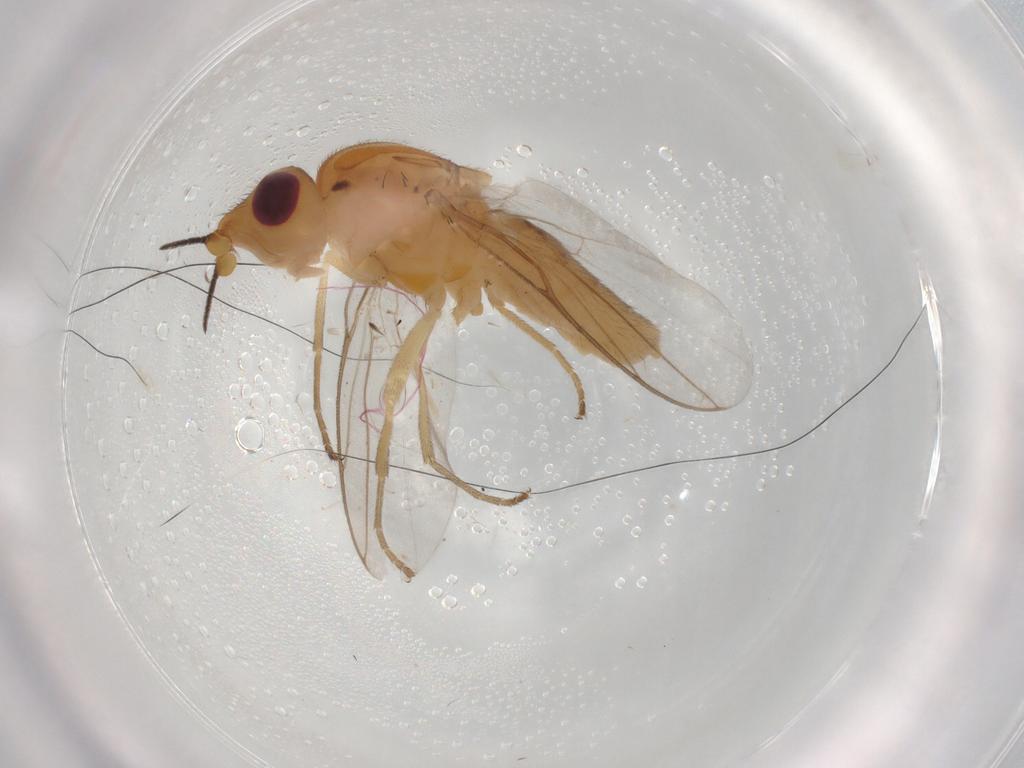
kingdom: Animalia
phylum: Arthropoda
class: Insecta
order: Diptera
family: Chloropidae
